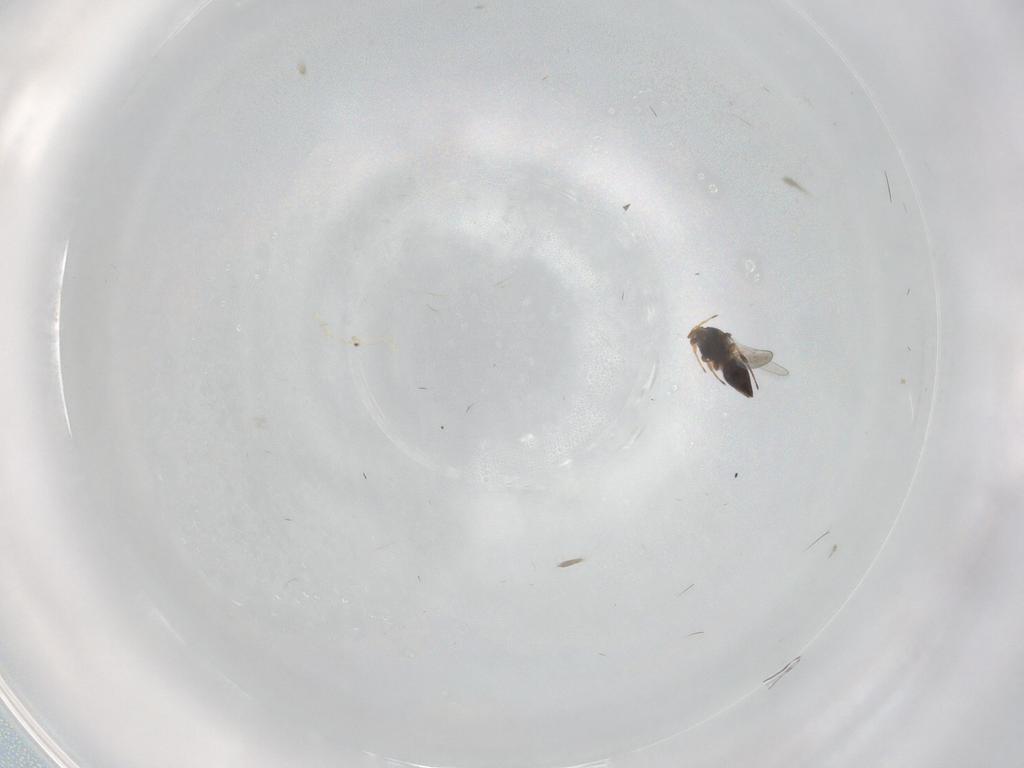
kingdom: Animalia
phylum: Arthropoda
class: Insecta
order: Hymenoptera
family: Platygastridae
